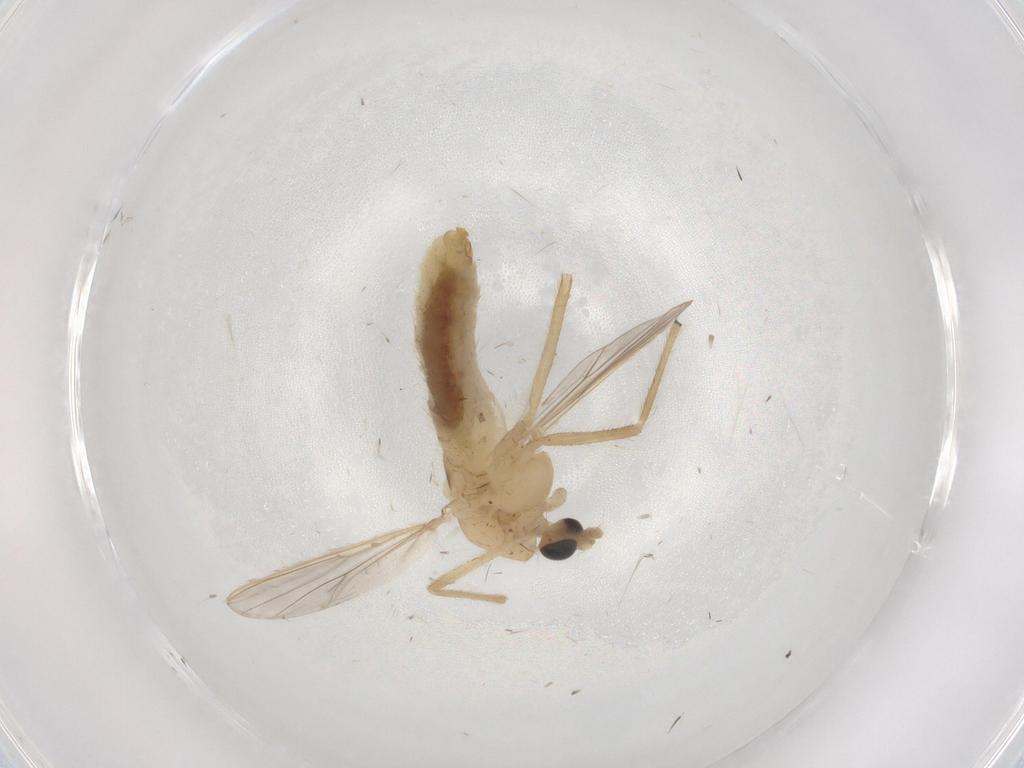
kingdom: Animalia
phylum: Arthropoda
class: Insecta
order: Diptera
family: Chironomidae
